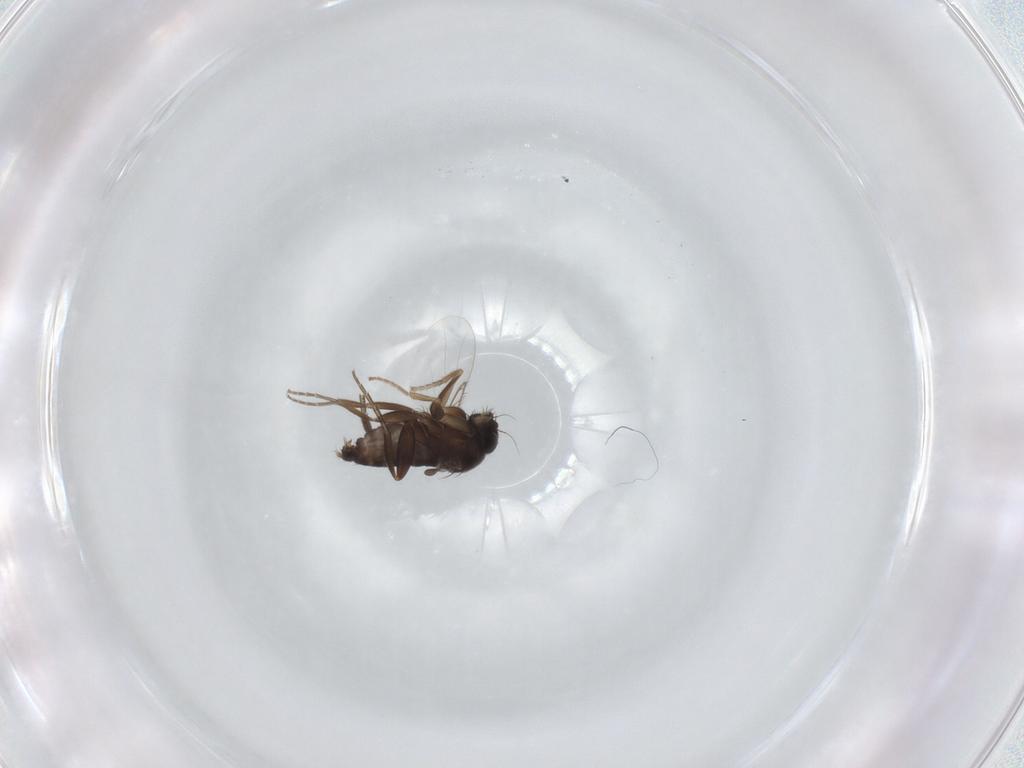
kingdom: Animalia
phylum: Arthropoda
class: Insecta
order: Diptera
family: Phoridae
